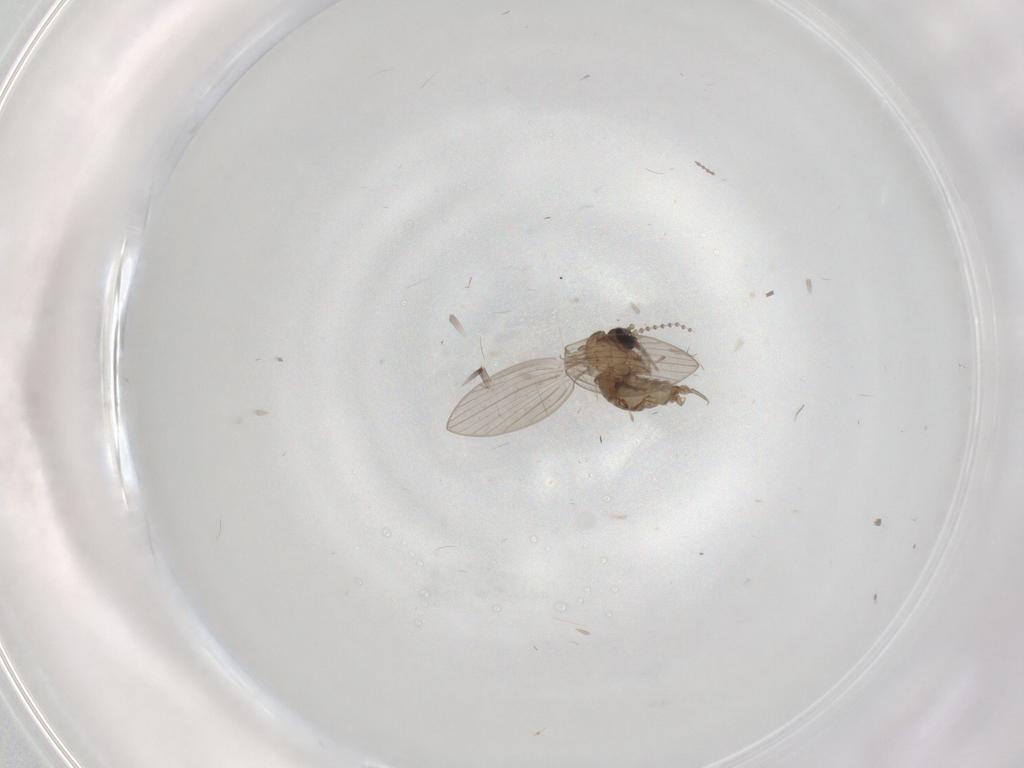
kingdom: Animalia
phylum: Arthropoda
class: Insecta
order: Diptera
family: Psychodidae
